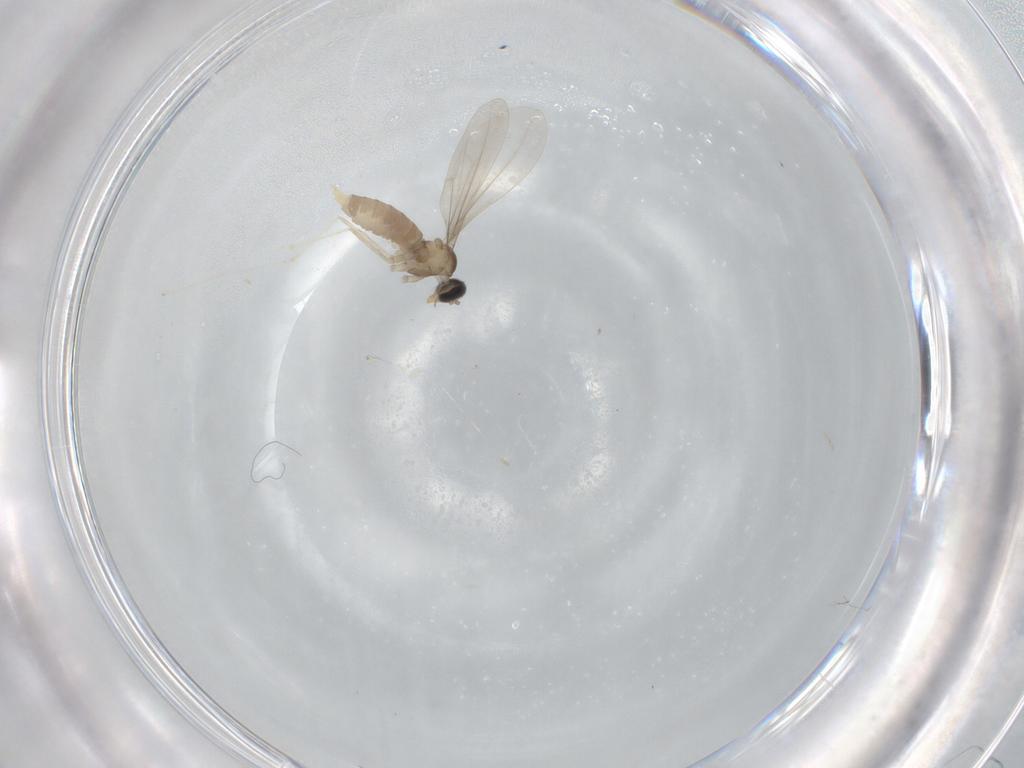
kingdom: Animalia
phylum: Arthropoda
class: Insecta
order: Diptera
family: Cecidomyiidae
